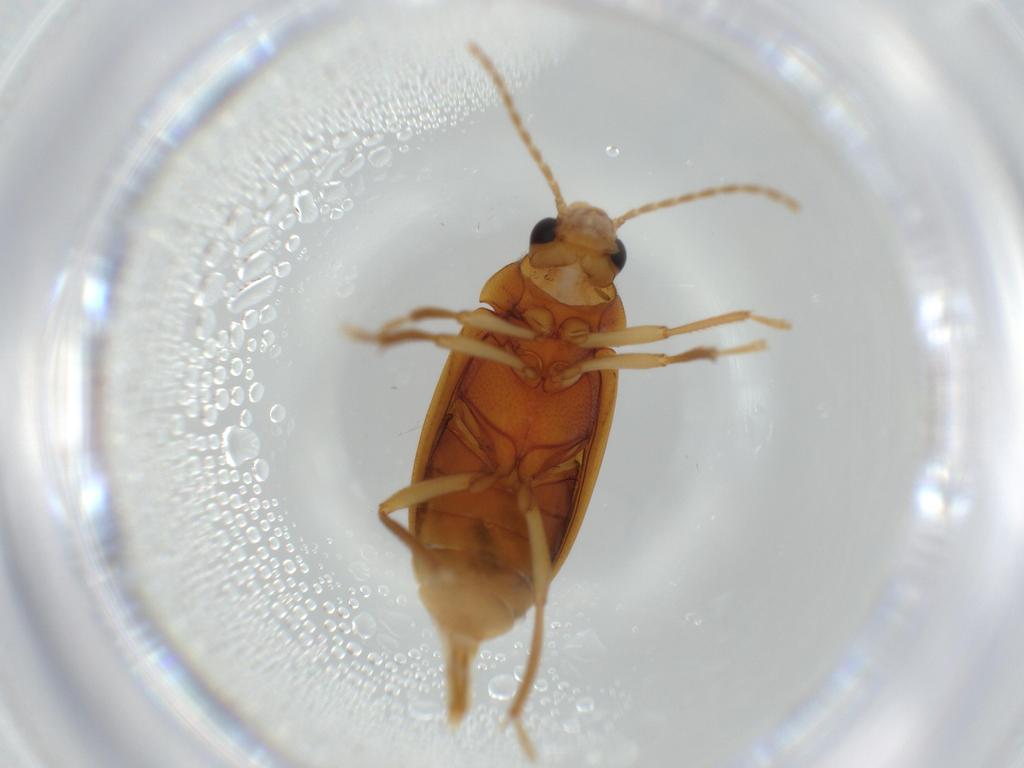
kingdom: Animalia
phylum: Arthropoda
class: Insecta
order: Coleoptera
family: Ptilodactylidae
